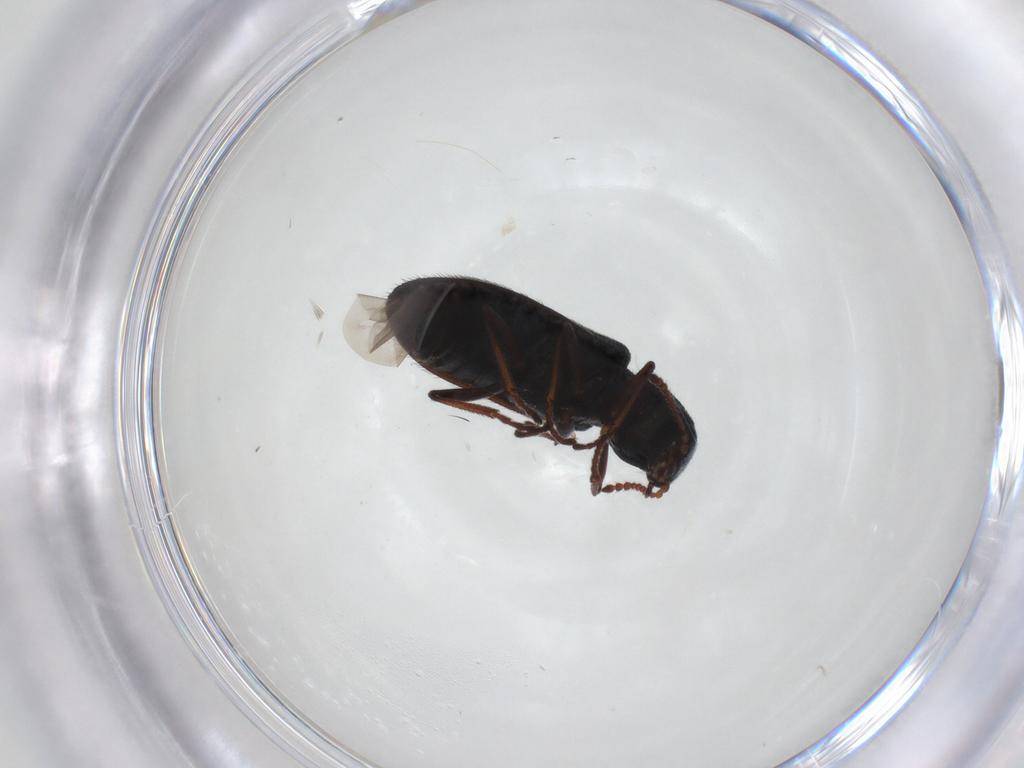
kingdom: Animalia
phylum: Arthropoda
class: Insecta
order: Coleoptera
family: Melyridae
